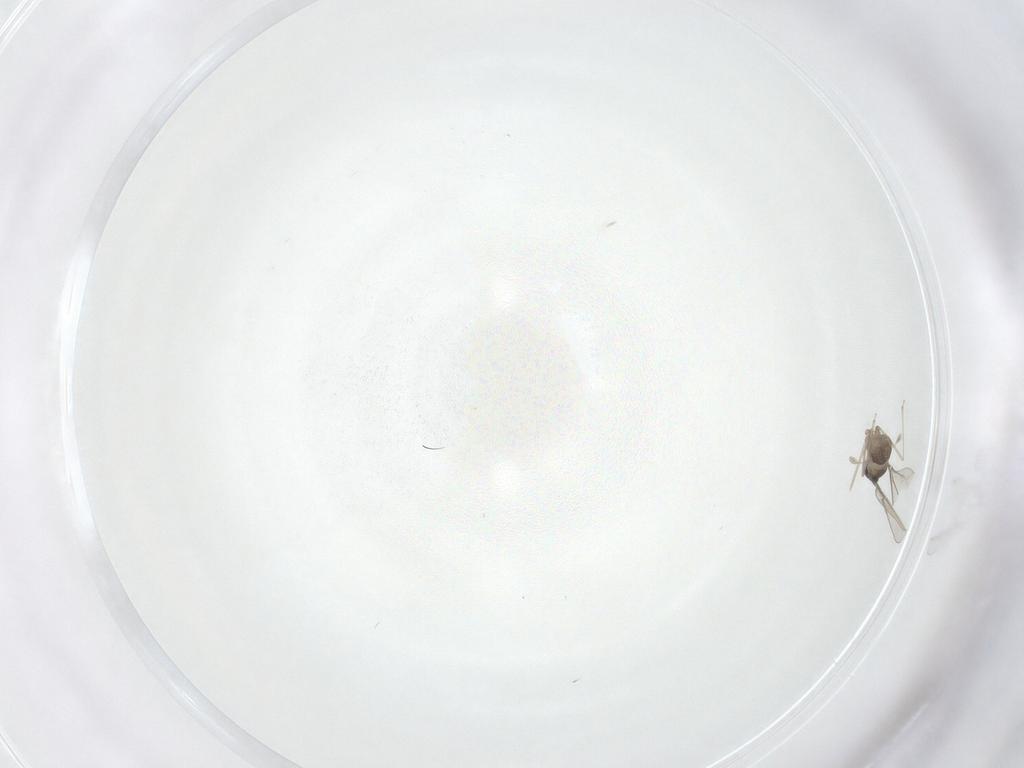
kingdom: Animalia
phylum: Arthropoda
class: Insecta
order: Diptera
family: Cecidomyiidae
